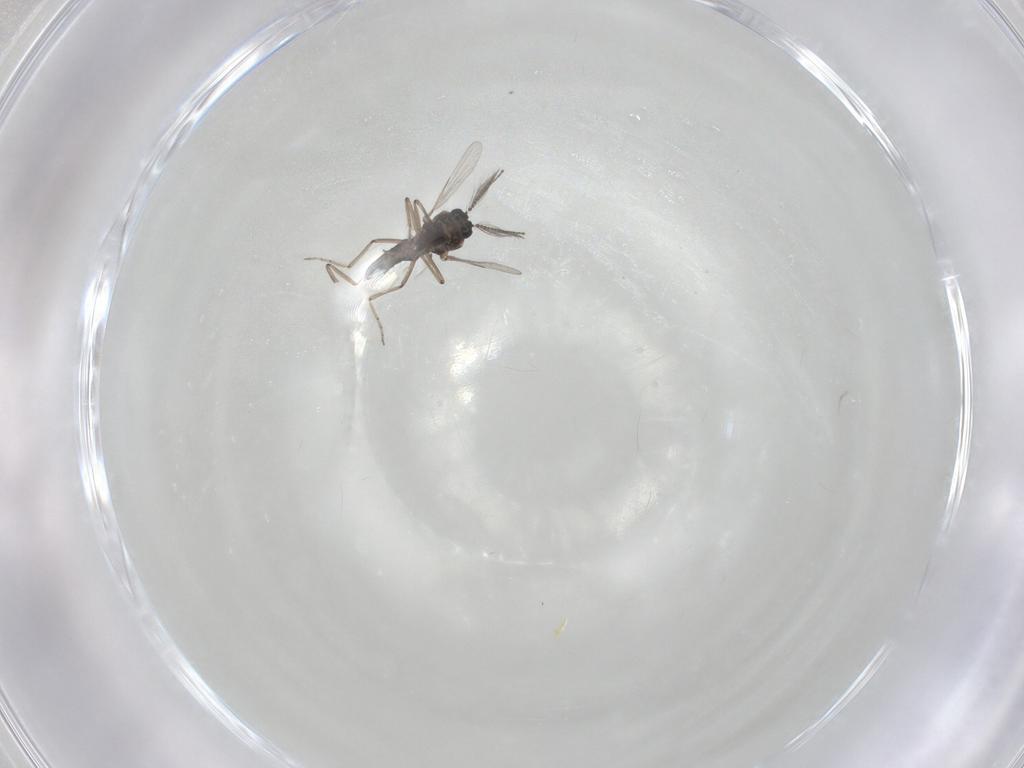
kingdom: Animalia
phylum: Arthropoda
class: Insecta
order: Diptera
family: Ceratopogonidae
